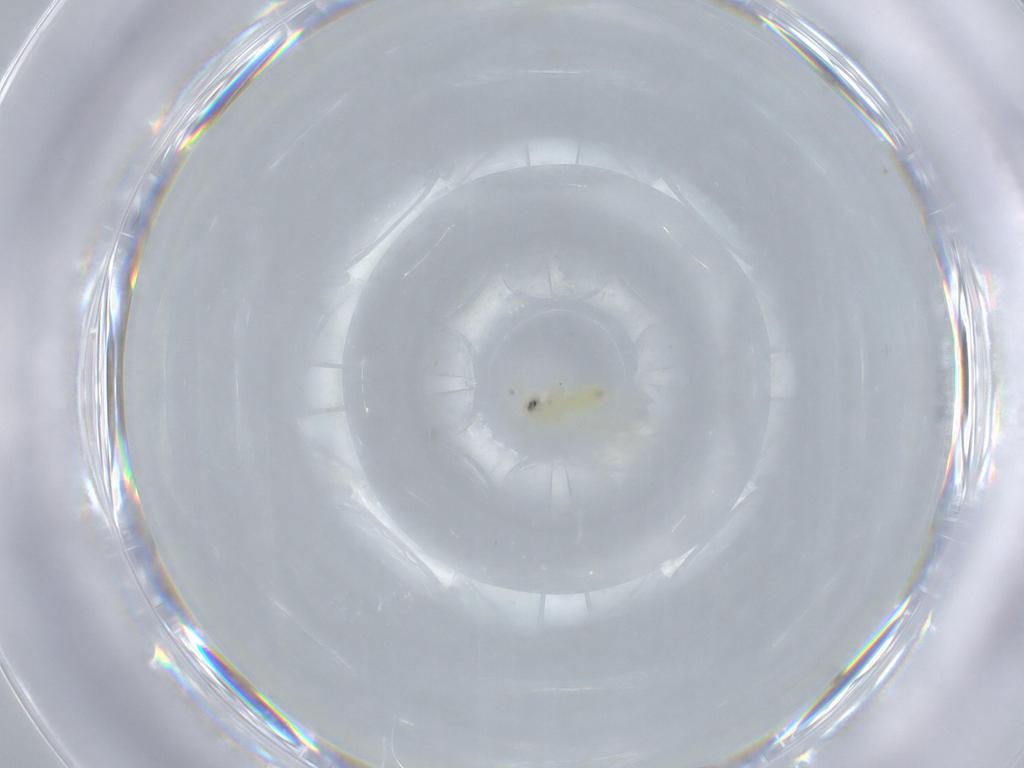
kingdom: Animalia
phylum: Arthropoda
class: Insecta
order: Hemiptera
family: Aleyrodidae
